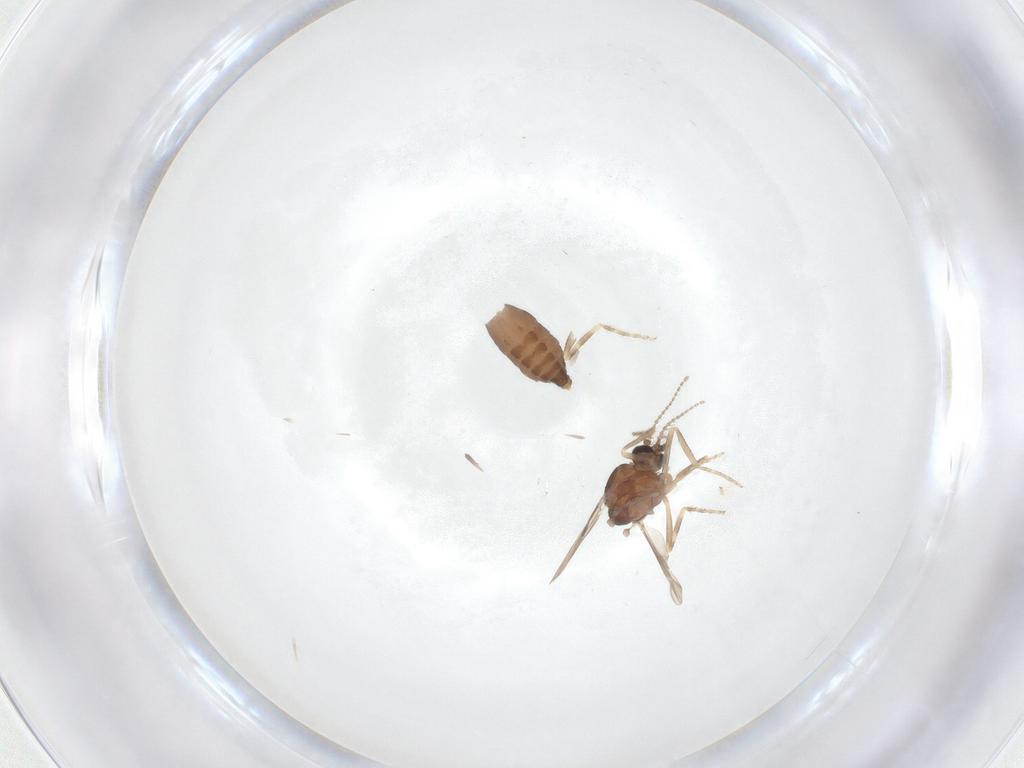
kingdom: Animalia
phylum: Arthropoda
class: Insecta
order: Diptera
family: Ceratopogonidae
